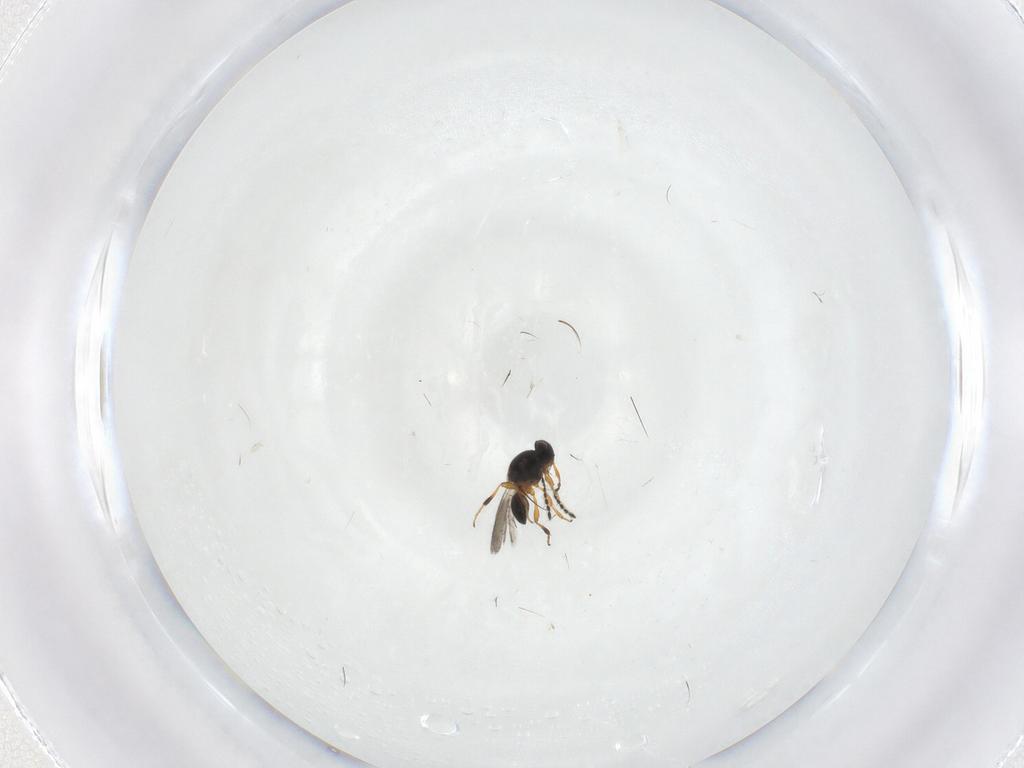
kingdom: Animalia
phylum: Arthropoda
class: Insecta
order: Hymenoptera
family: Platygastridae
